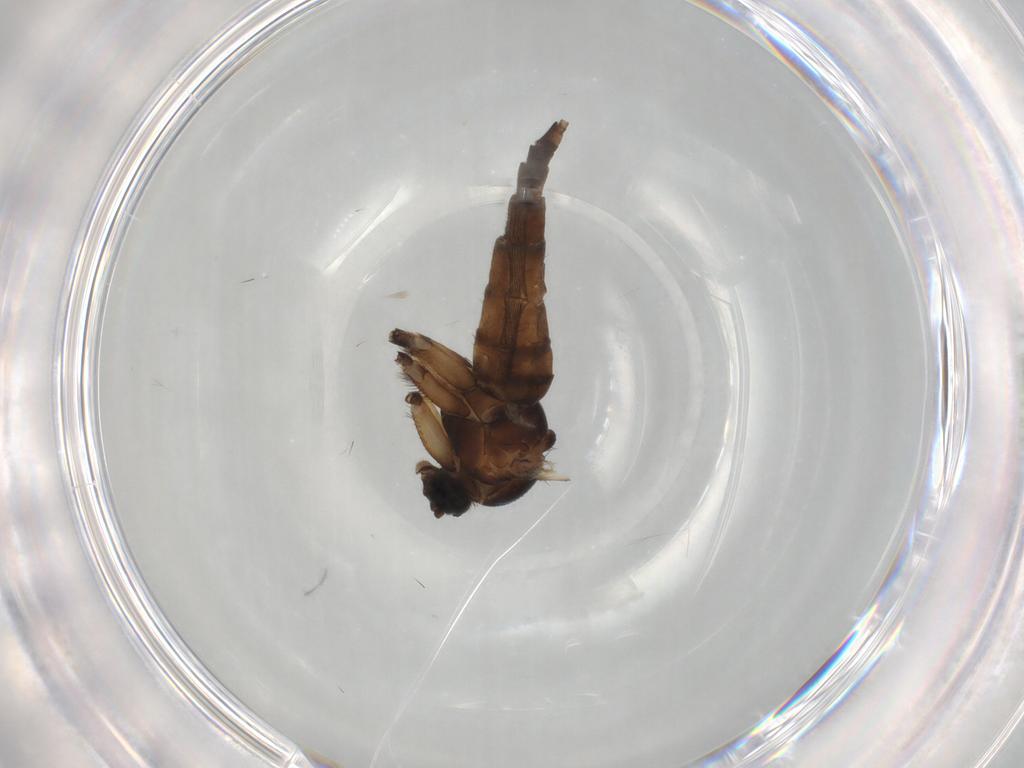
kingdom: Animalia
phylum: Arthropoda
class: Insecta
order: Diptera
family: Sciaridae
